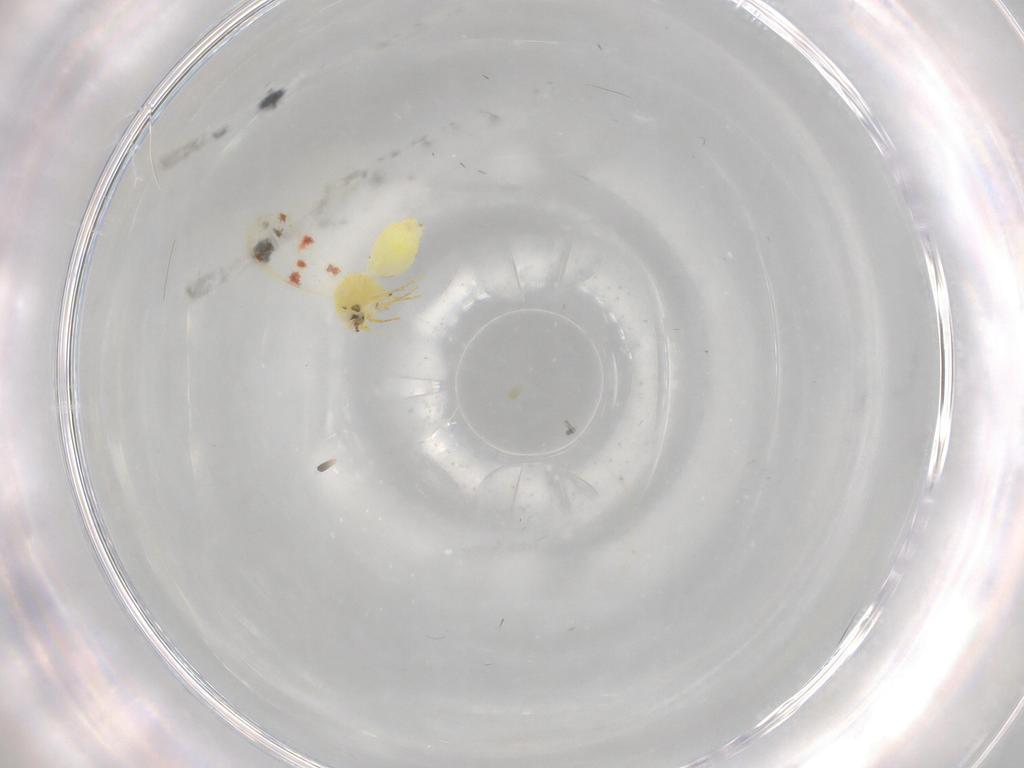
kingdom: Animalia
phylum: Arthropoda
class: Insecta
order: Hemiptera
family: Aleyrodidae
